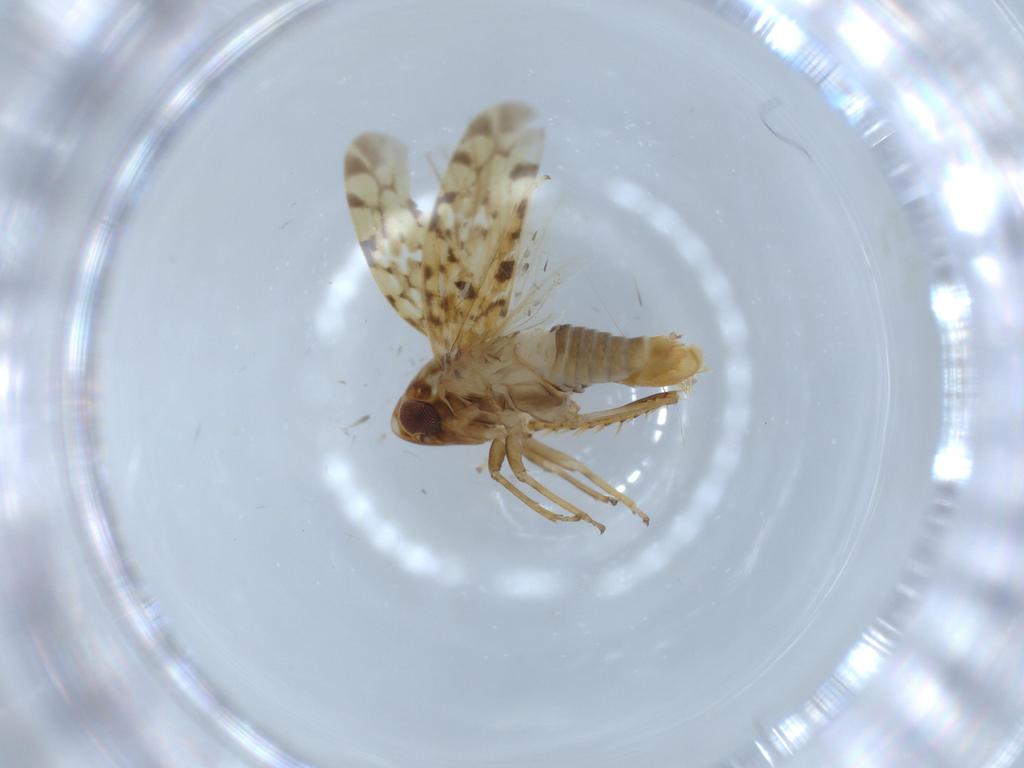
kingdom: Animalia
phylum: Arthropoda
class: Insecta
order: Hemiptera
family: Cicadellidae
